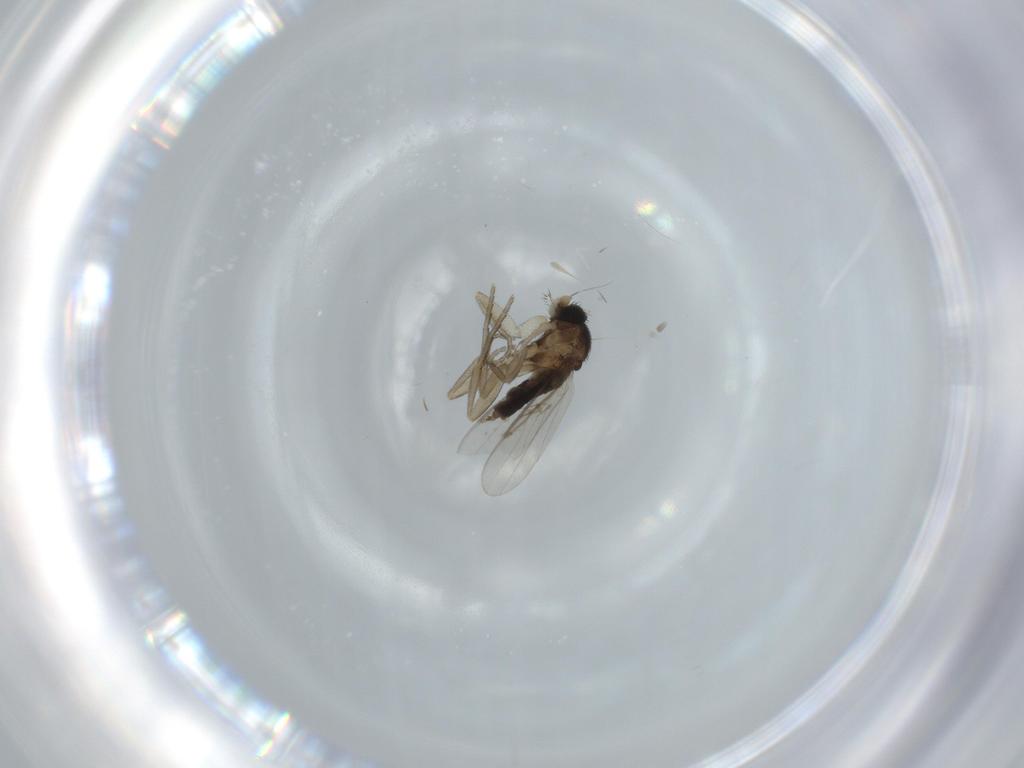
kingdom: Animalia
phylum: Arthropoda
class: Insecta
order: Diptera
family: Phoridae
